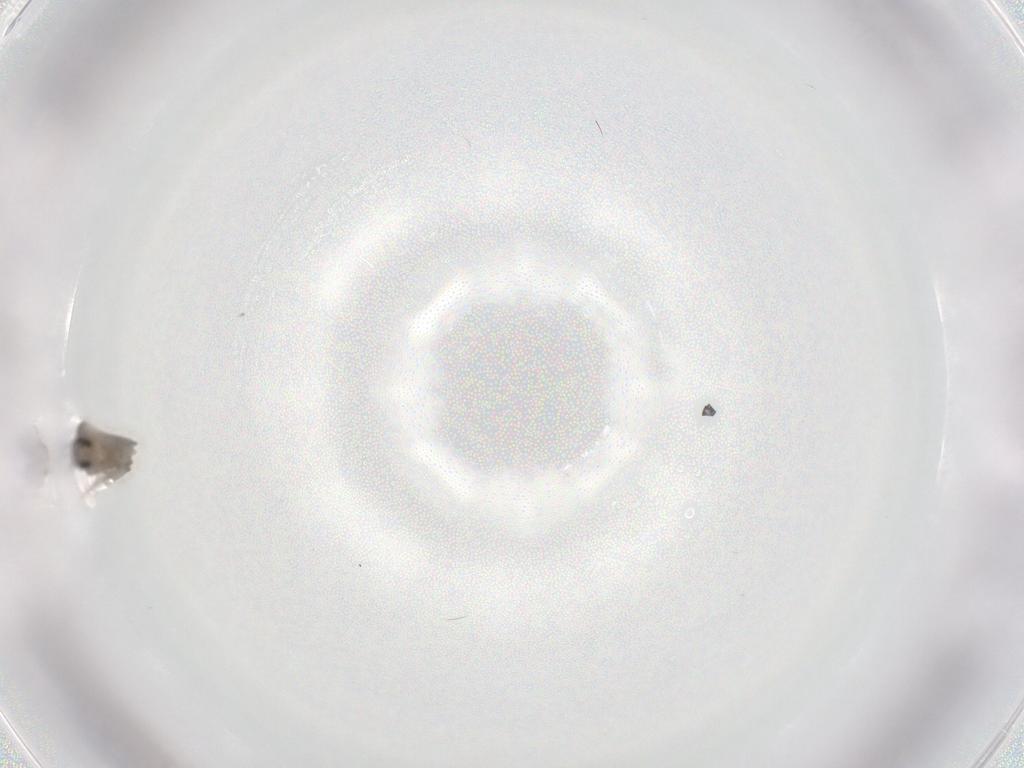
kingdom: Animalia
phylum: Arthropoda
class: Insecta
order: Diptera
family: Cecidomyiidae
